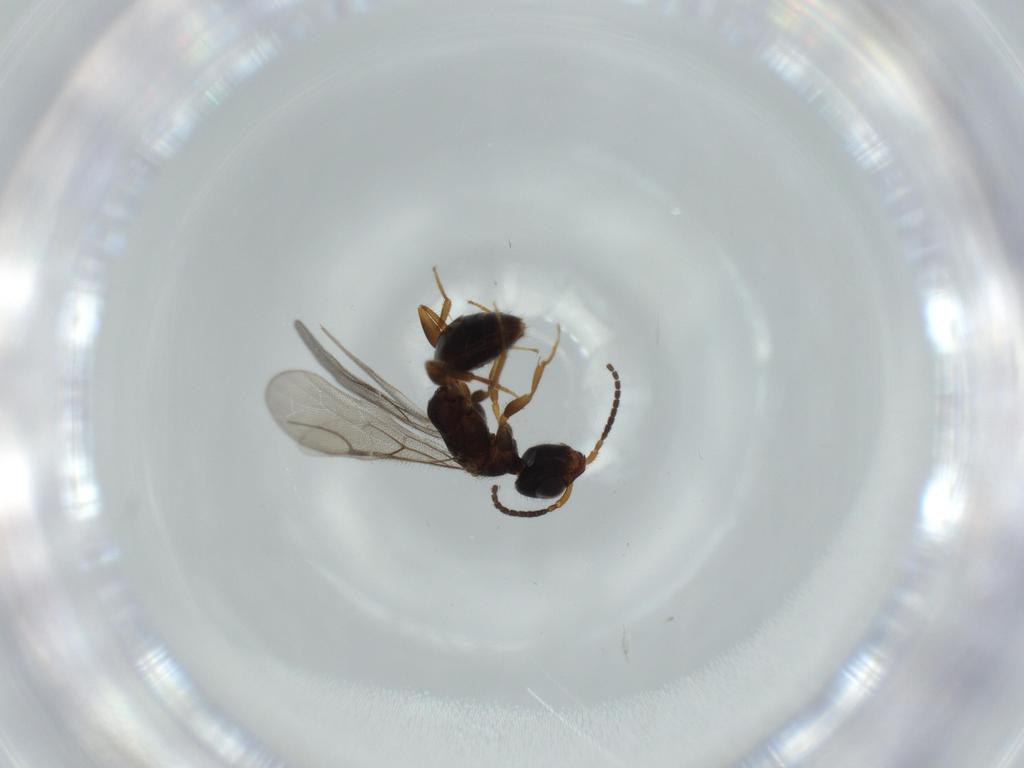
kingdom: Animalia
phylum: Arthropoda
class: Insecta
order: Hymenoptera
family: Bethylidae
